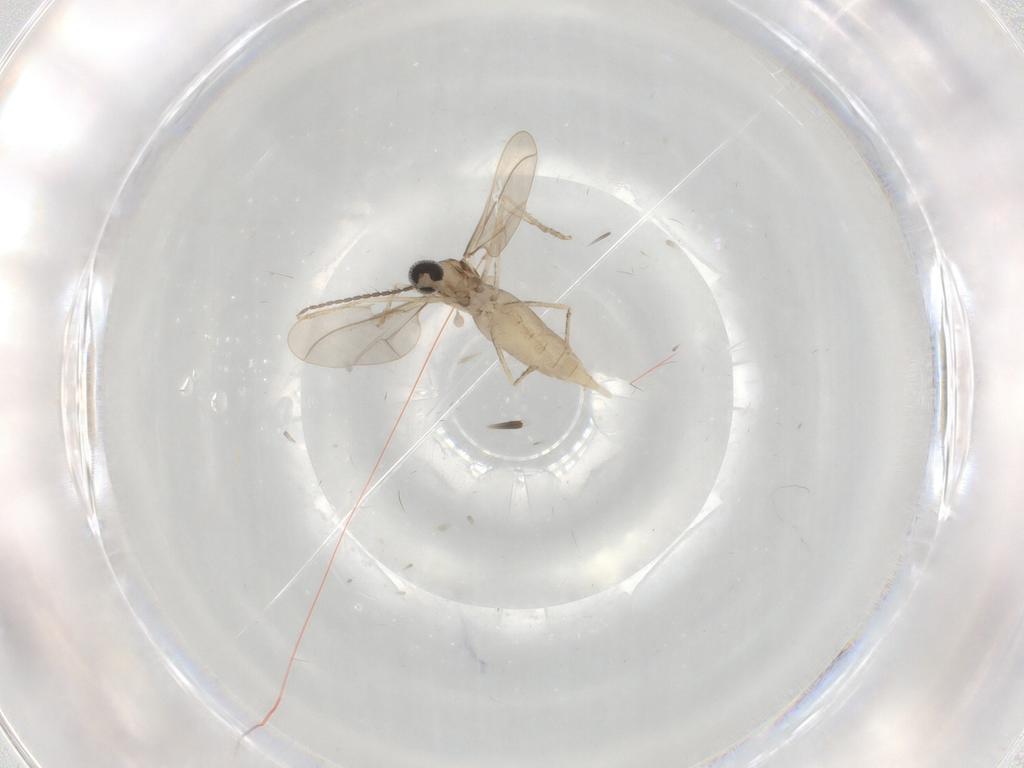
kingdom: Animalia
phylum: Arthropoda
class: Insecta
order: Diptera
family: Cecidomyiidae
